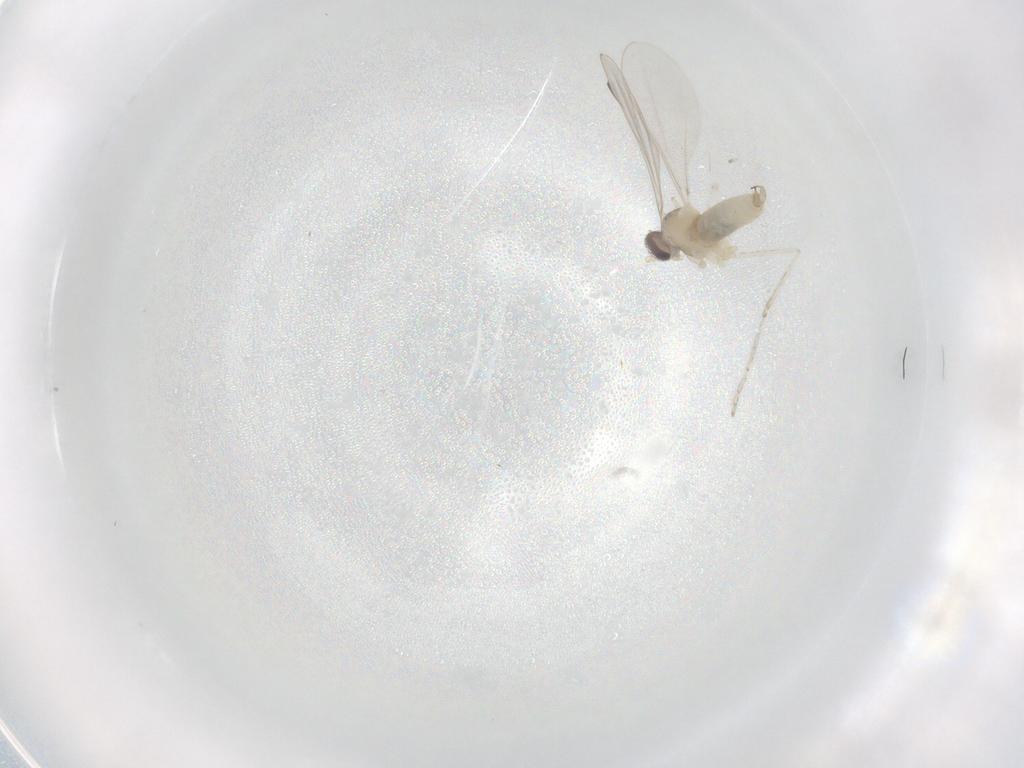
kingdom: Animalia
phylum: Arthropoda
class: Insecta
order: Diptera
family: Cecidomyiidae
